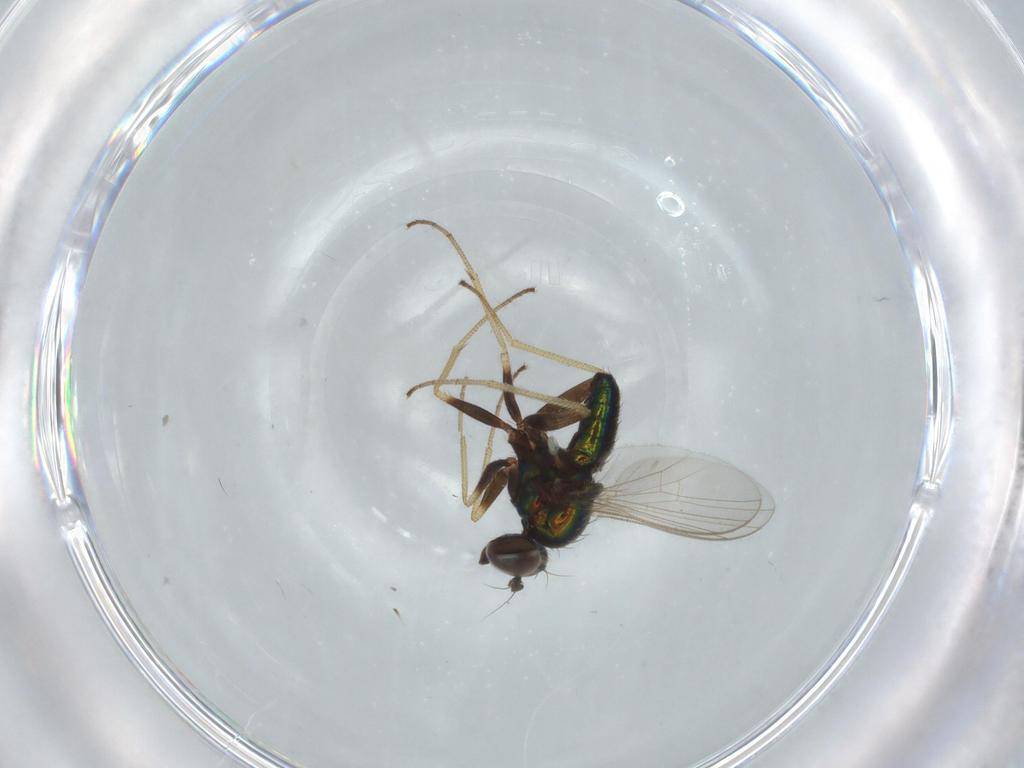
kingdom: Animalia
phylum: Arthropoda
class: Insecta
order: Diptera
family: Dolichopodidae
